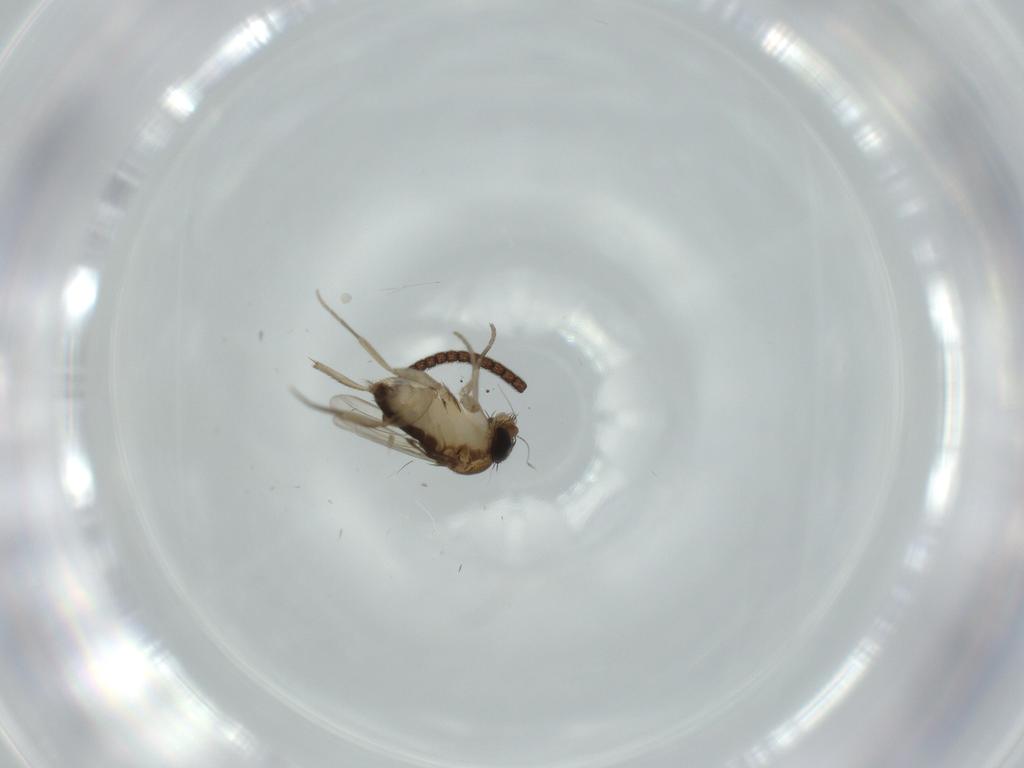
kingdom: Animalia
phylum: Arthropoda
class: Insecta
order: Diptera
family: Phoridae
